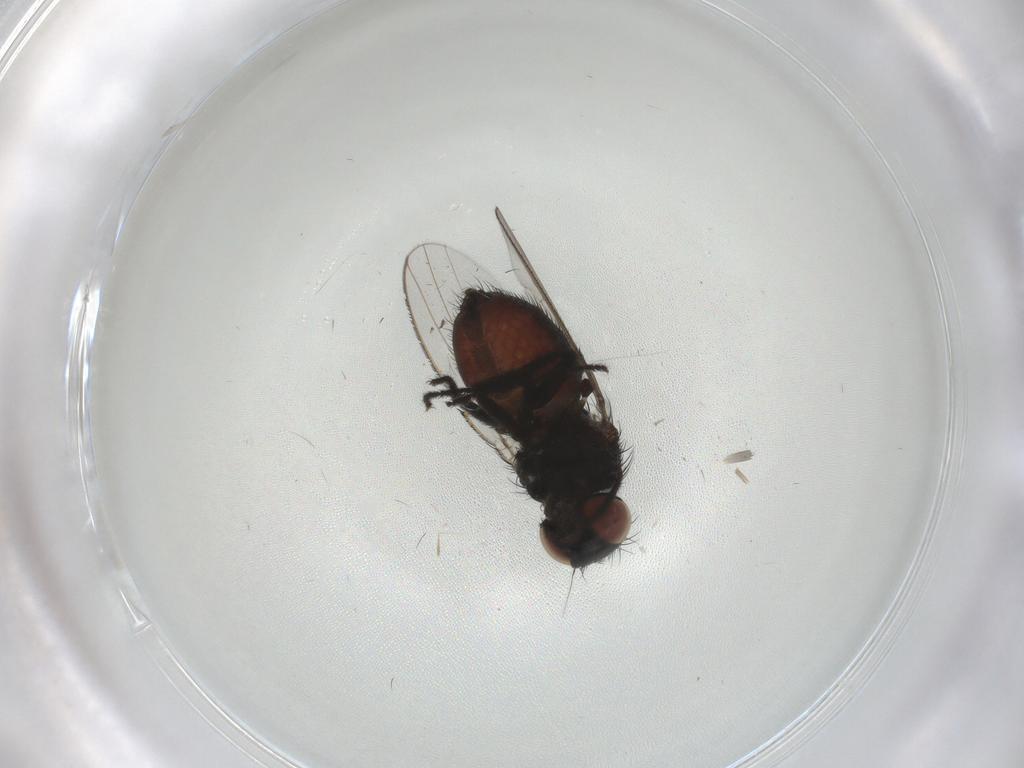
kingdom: Animalia
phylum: Arthropoda
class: Insecta
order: Diptera
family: Milichiidae
